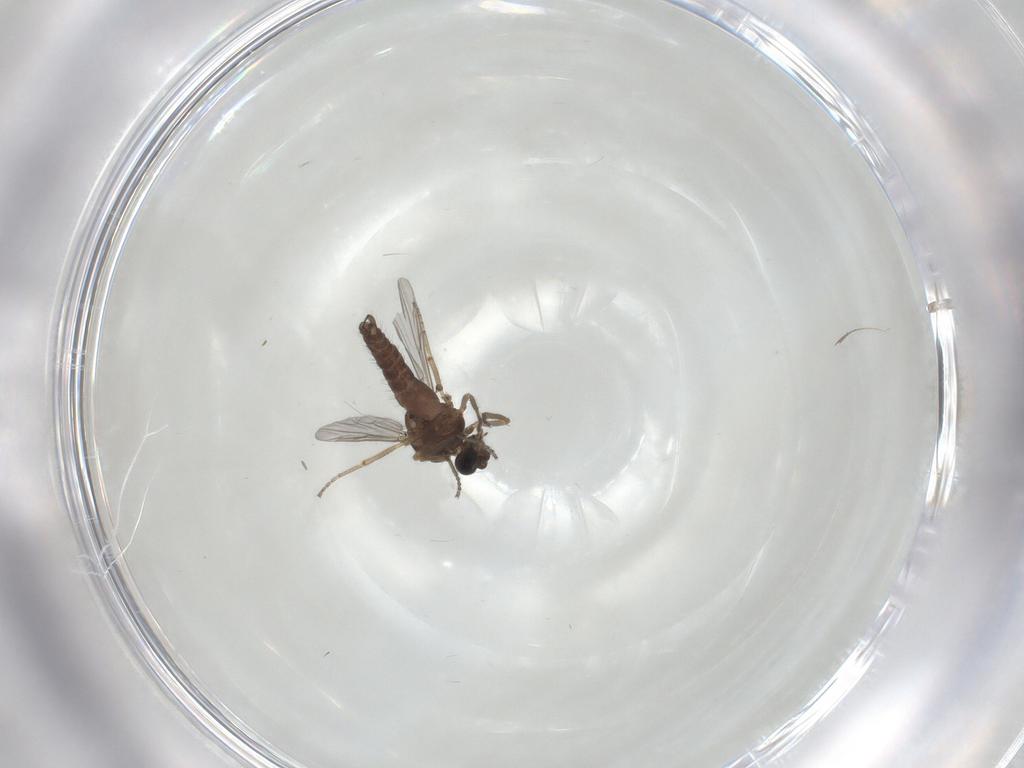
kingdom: Animalia
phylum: Arthropoda
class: Insecta
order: Diptera
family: Ceratopogonidae
